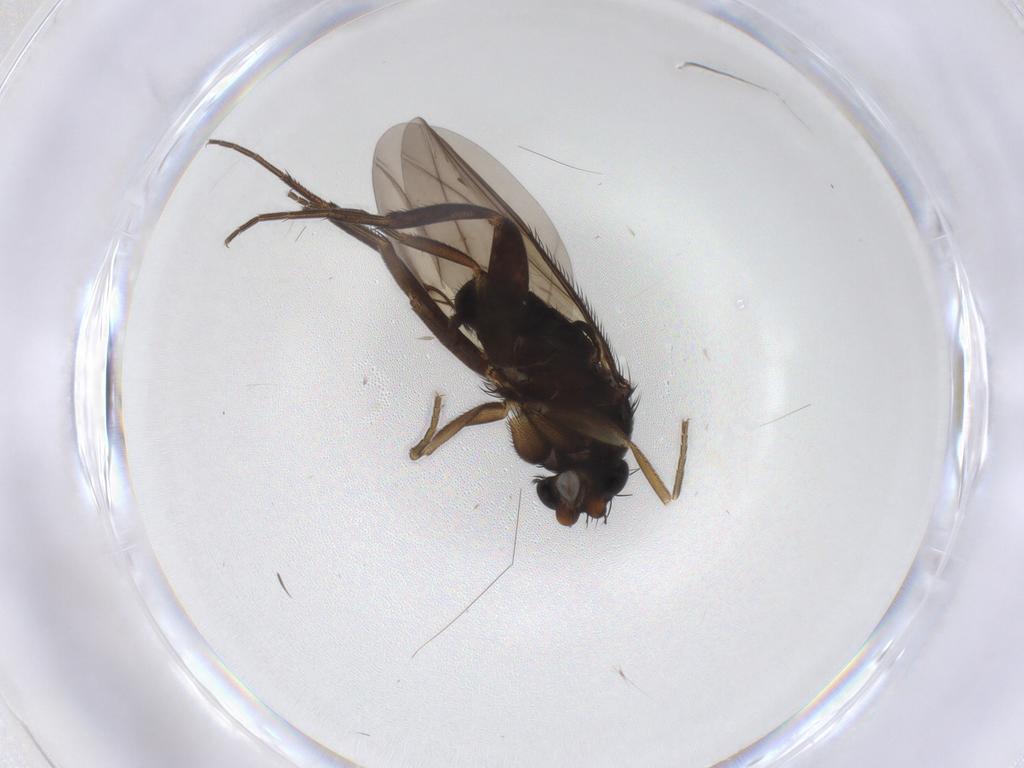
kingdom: Animalia
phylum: Arthropoda
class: Insecta
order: Diptera
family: Phoridae
